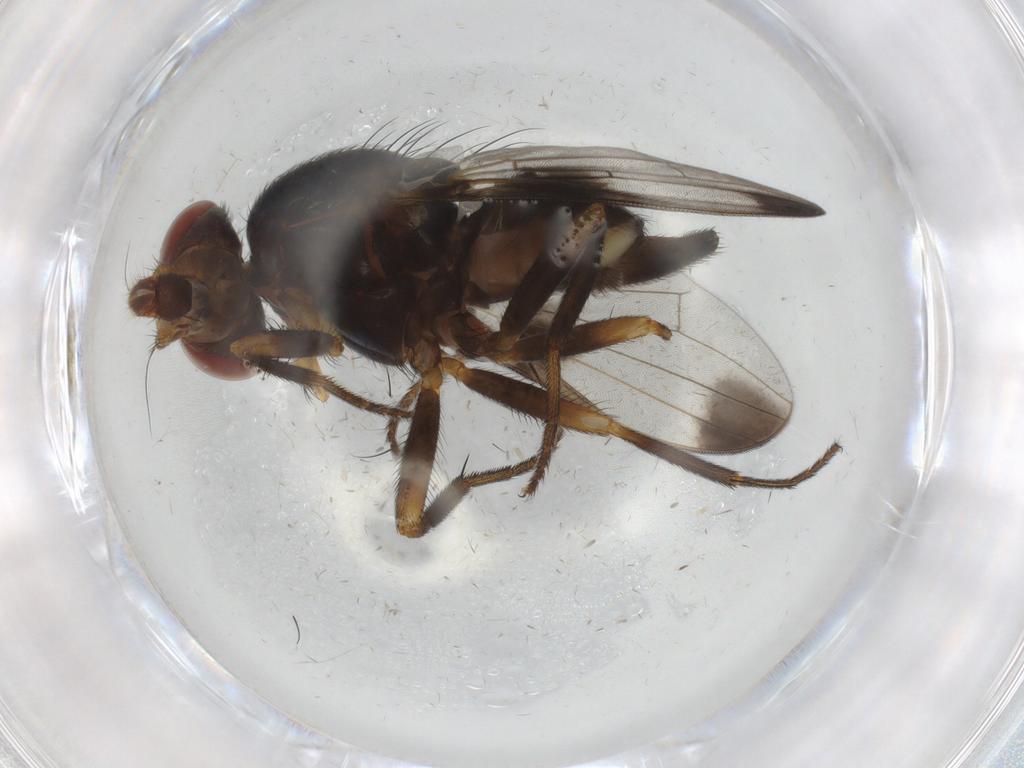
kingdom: Animalia
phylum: Arthropoda
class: Insecta
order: Diptera
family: Ulidiidae
